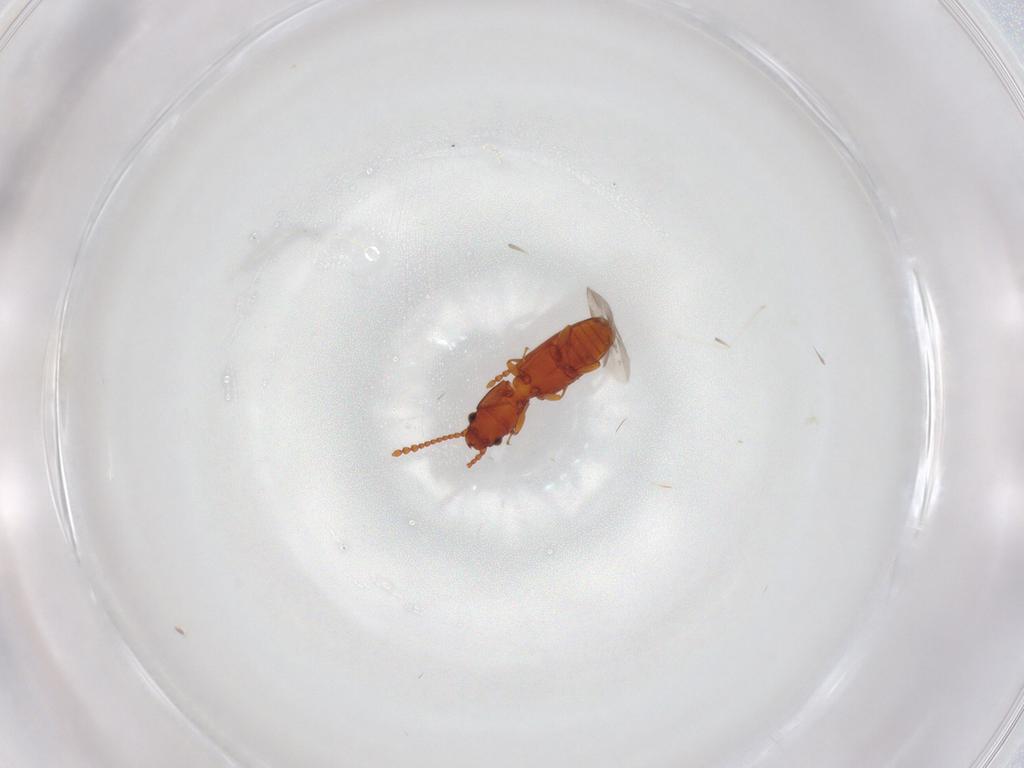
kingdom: Animalia
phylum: Arthropoda
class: Insecta
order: Coleoptera
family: Laemophloeidae
